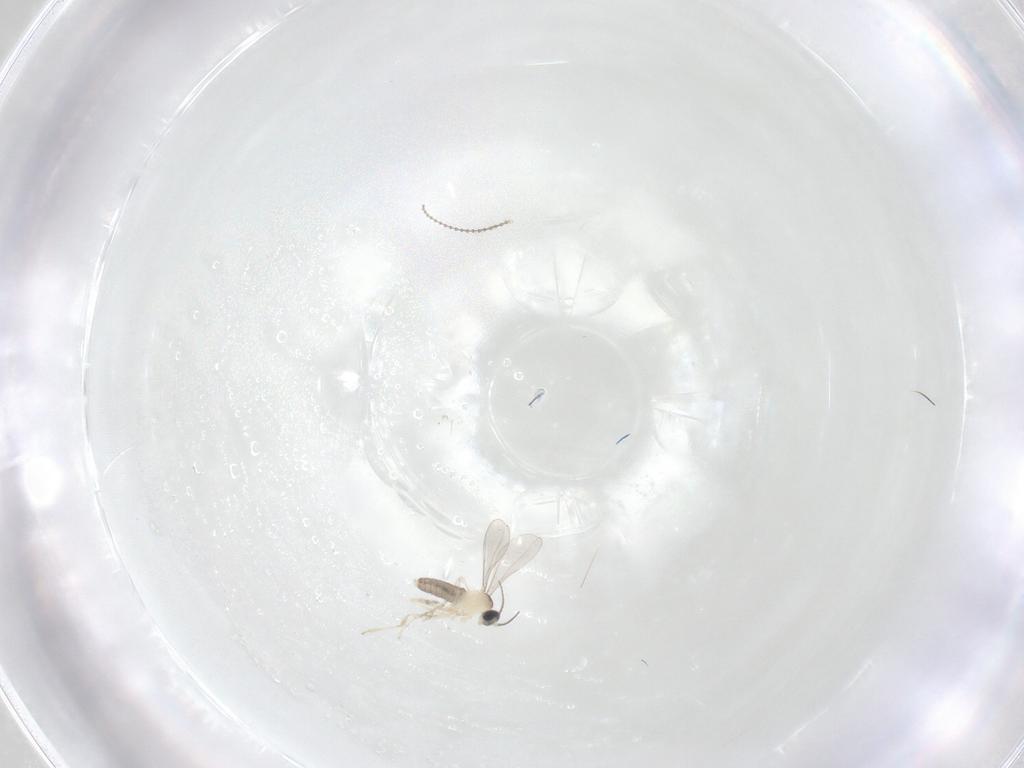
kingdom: Animalia
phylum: Arthropoda
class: Insecta
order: Diptera
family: Cecidomyiidae
